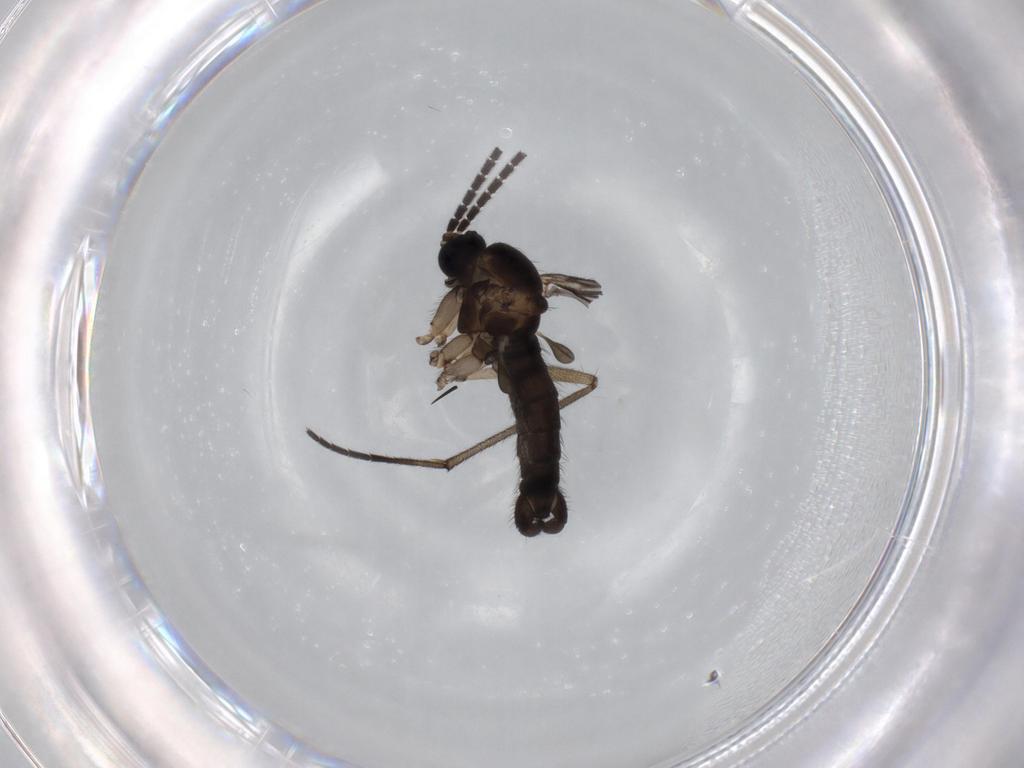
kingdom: Animalia
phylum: Arthropoda
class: Insecta
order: Diptera
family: Sciaridae
